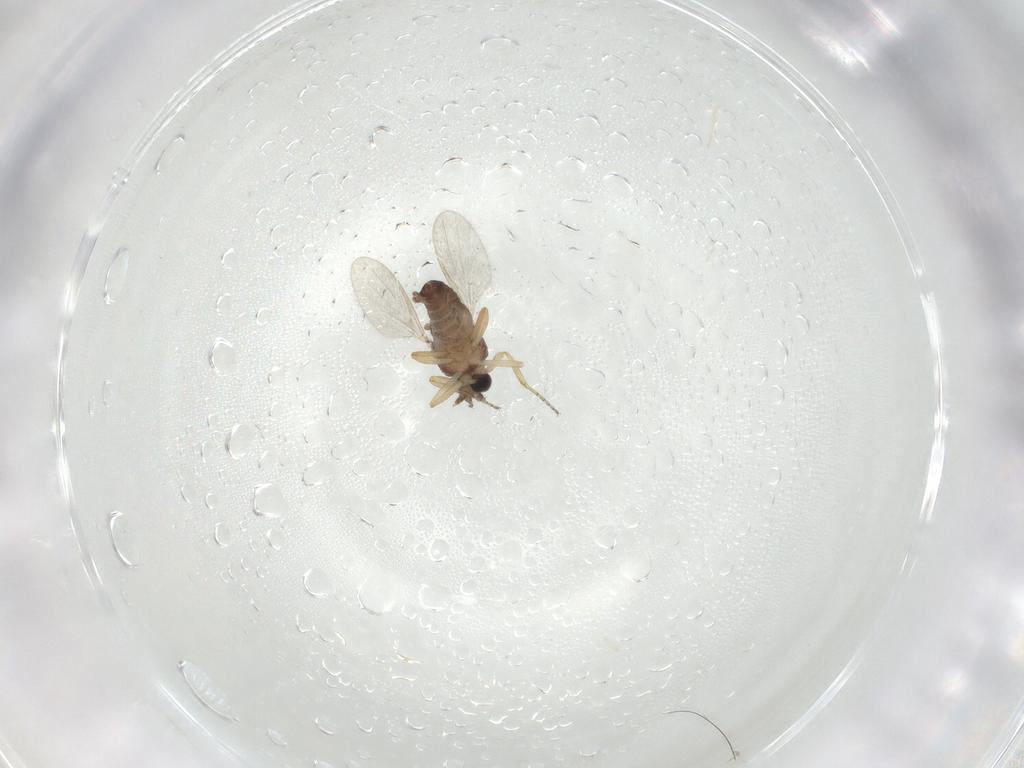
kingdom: Animalia
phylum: Arthropoda
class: Insecta
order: Diptera
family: Ceratopogonidae
